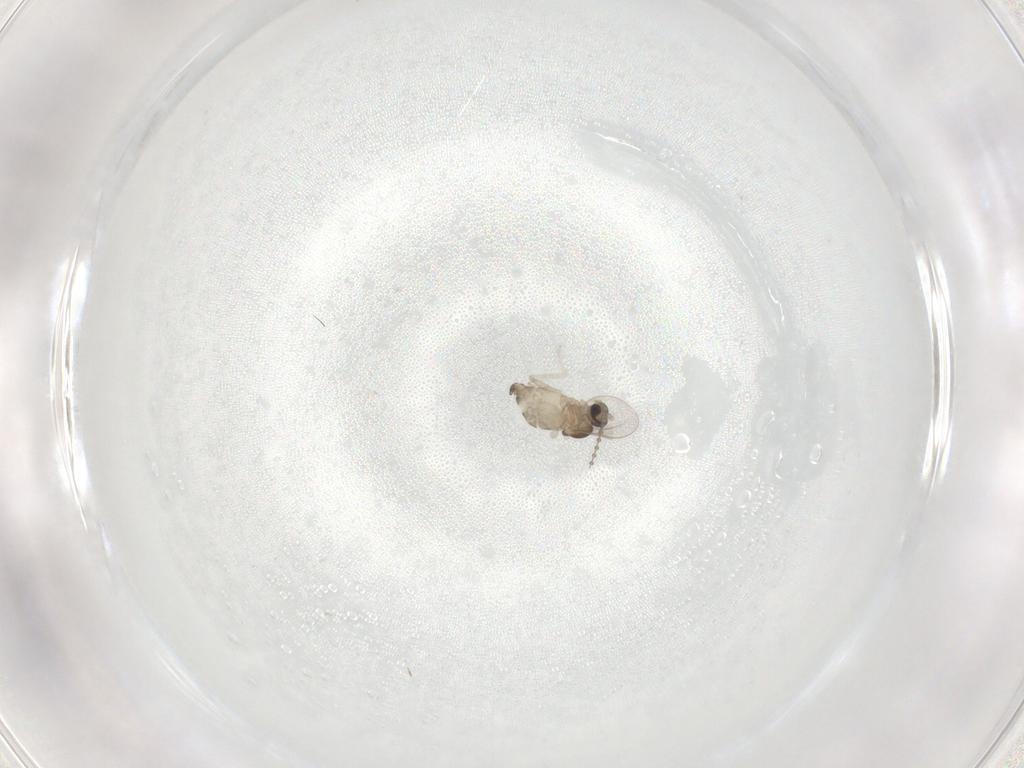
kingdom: Animalia
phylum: Arthropoda
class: Insecta
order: Diptera
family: Cecidomyiidae
